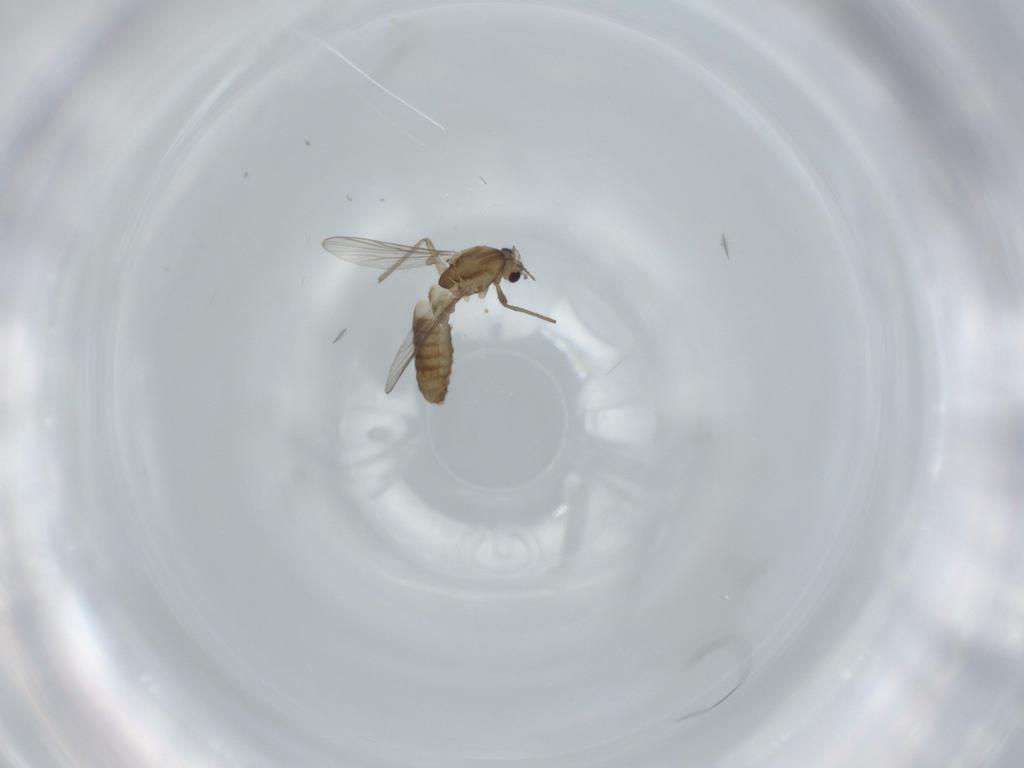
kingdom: Animalia
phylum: Arthropoda
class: Insecta
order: Diptera
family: Chironomidae
